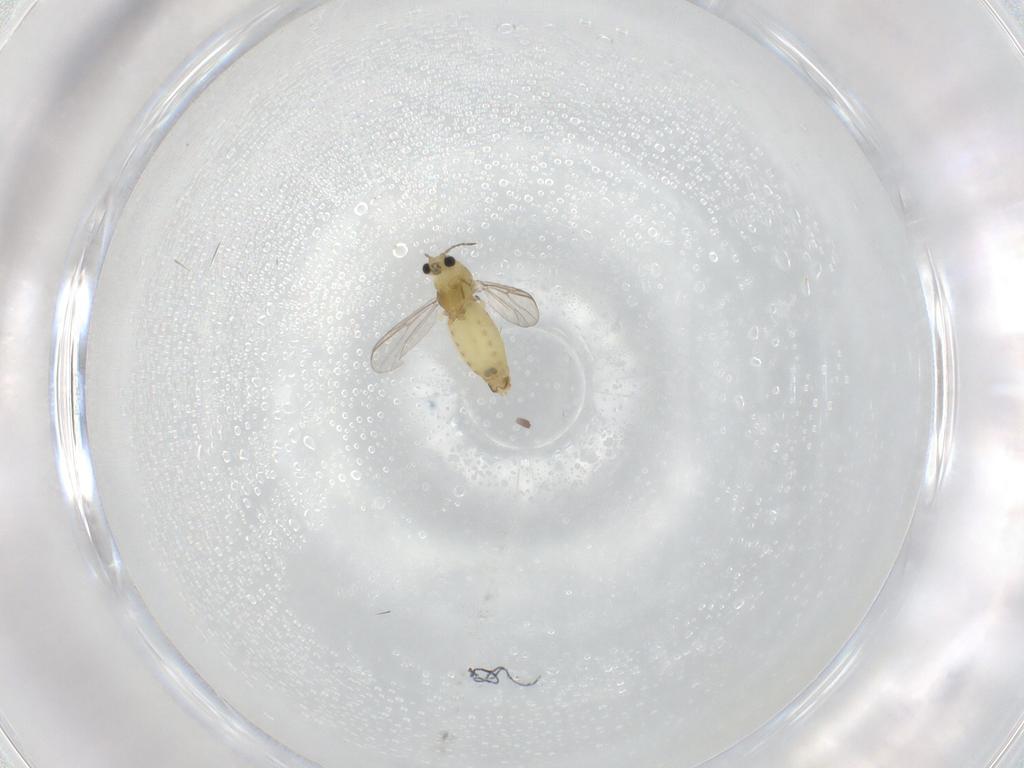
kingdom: Animalia
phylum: Arthropoda
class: Insecta
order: Diptera
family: Chironomidae
